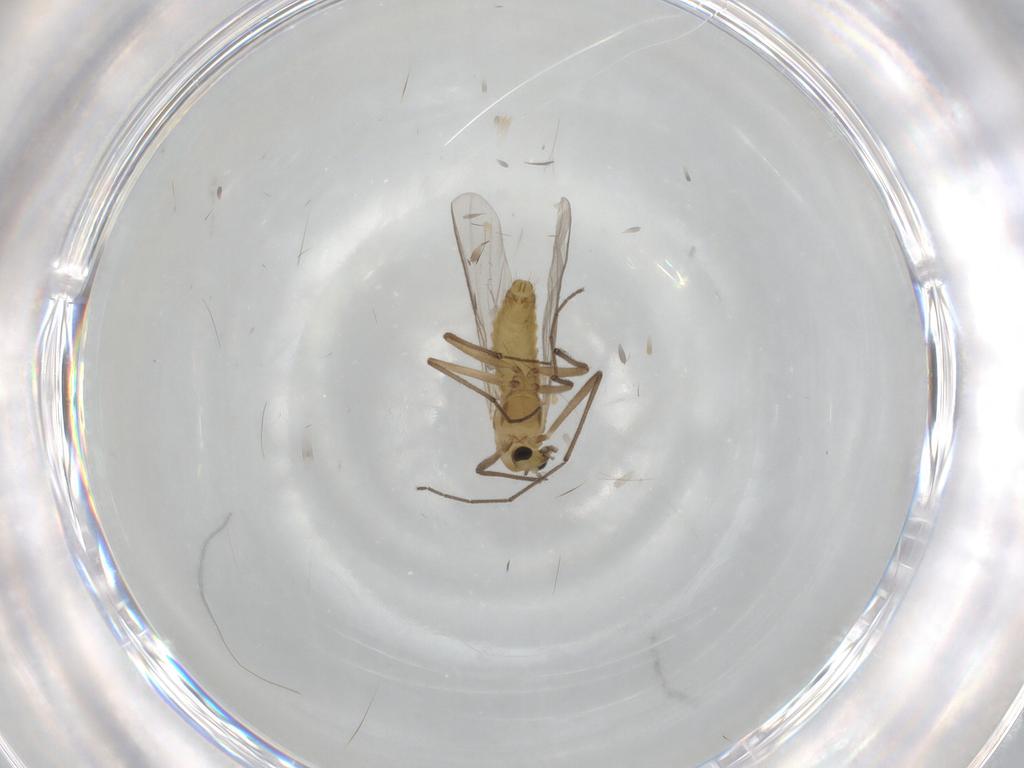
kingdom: Animalia
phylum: Arthropoda
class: Insecta
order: Diptera
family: Chironomidae
